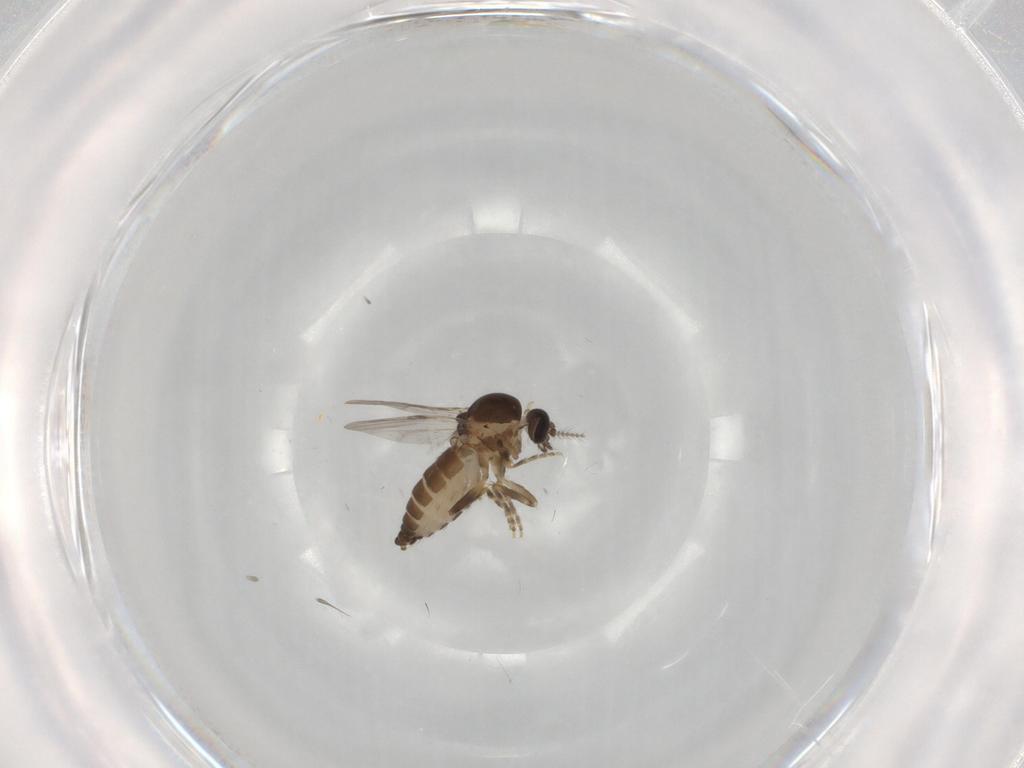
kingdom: Animalia
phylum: Arthropoda
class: Insecta
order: Diptera
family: Ceratopogonidae
